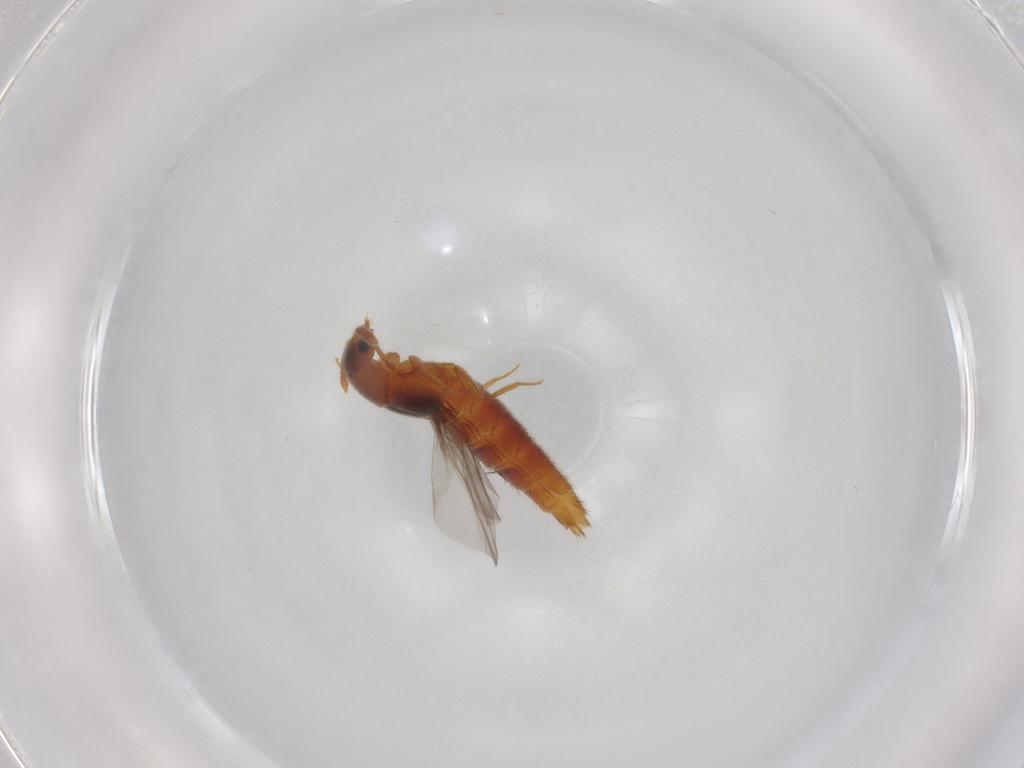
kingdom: Animalia
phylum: Arthropoda
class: Insecta
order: Coleoptera
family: Staphylinidae
